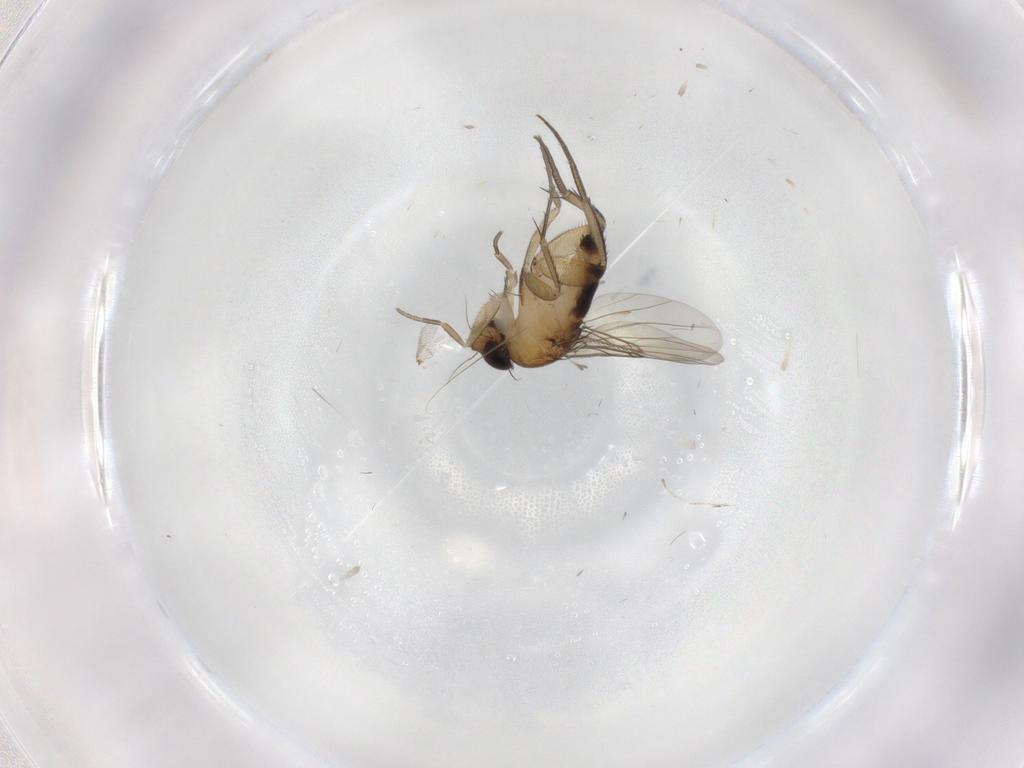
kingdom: Animalia
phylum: Arthropoda
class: Insecta
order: Diptera
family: Phoridae
